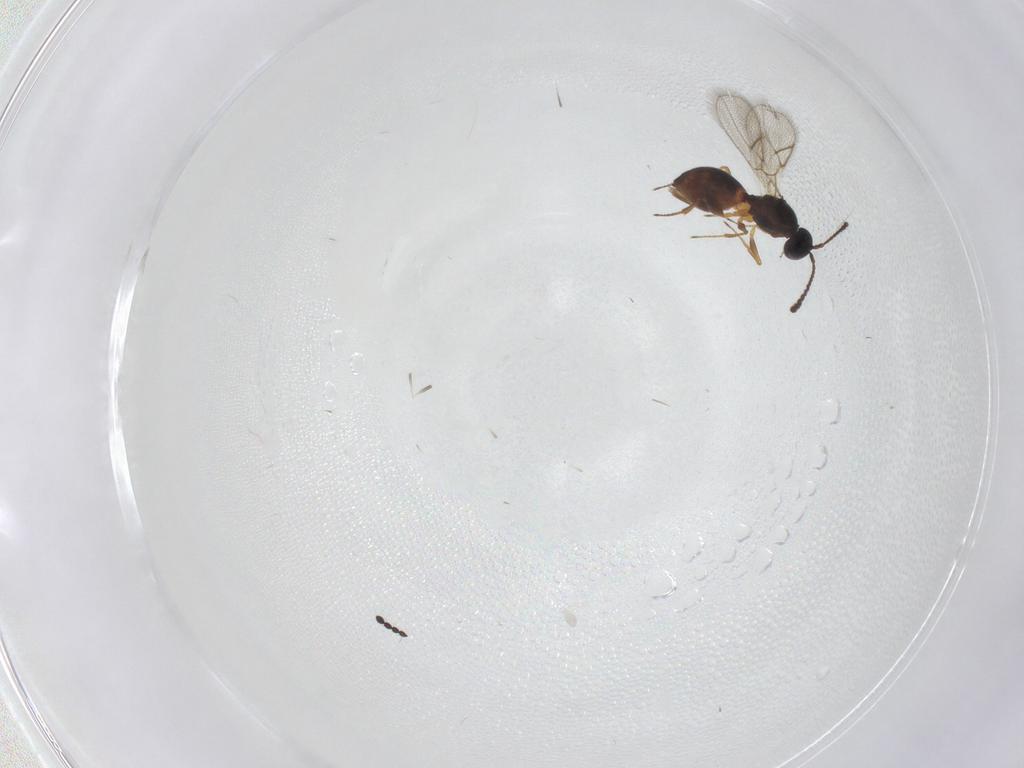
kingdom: Animalia
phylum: Arthropoda
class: Insecta
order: Hymenoptera
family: Figitidae
